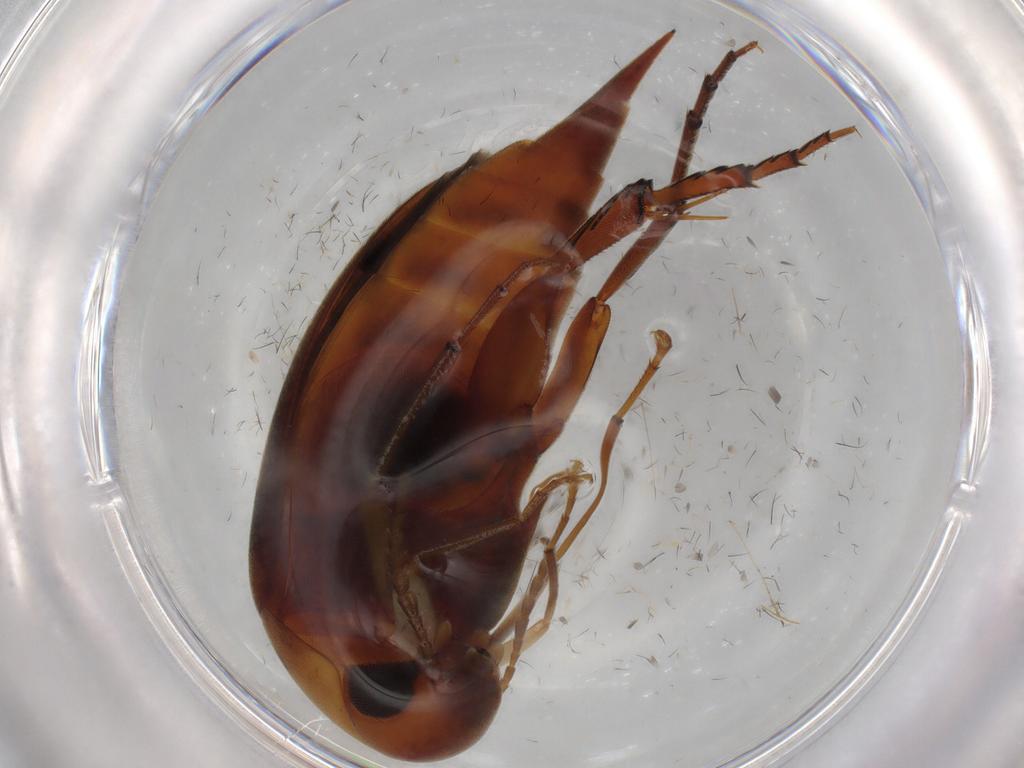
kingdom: Animalia
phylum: Arthropoda
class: Insecta
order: Coleoptera
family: Mordellidae
